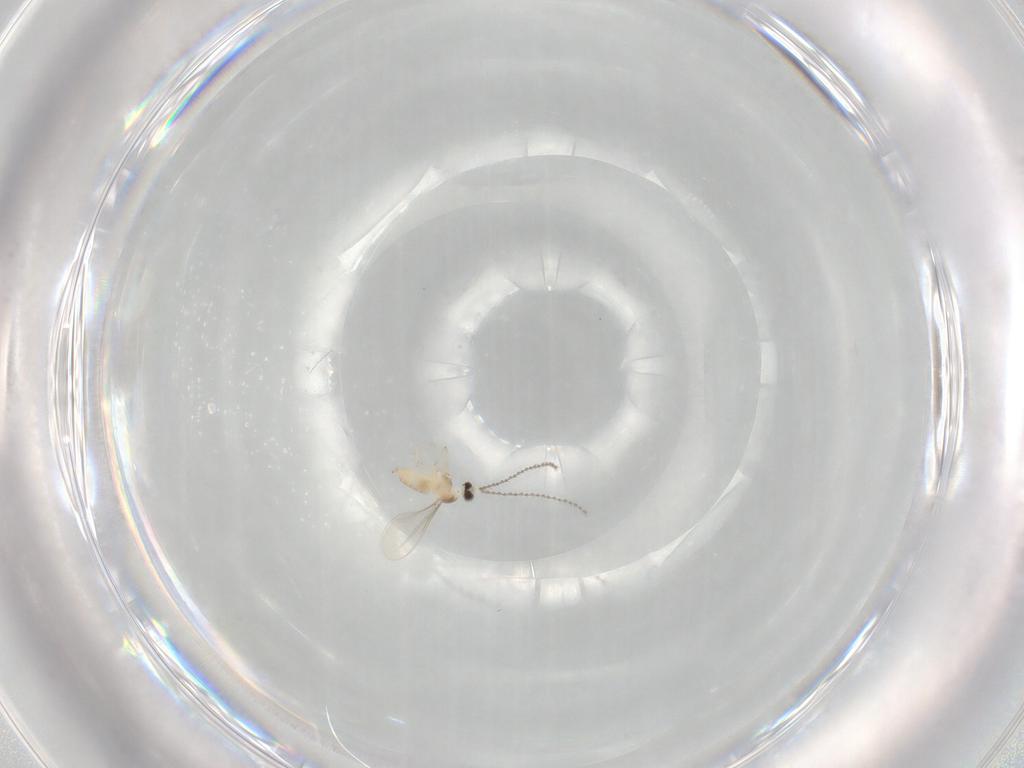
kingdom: Animalia
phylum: Arthropoda
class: Insecta
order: Diptera
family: Cecidomyiidae
